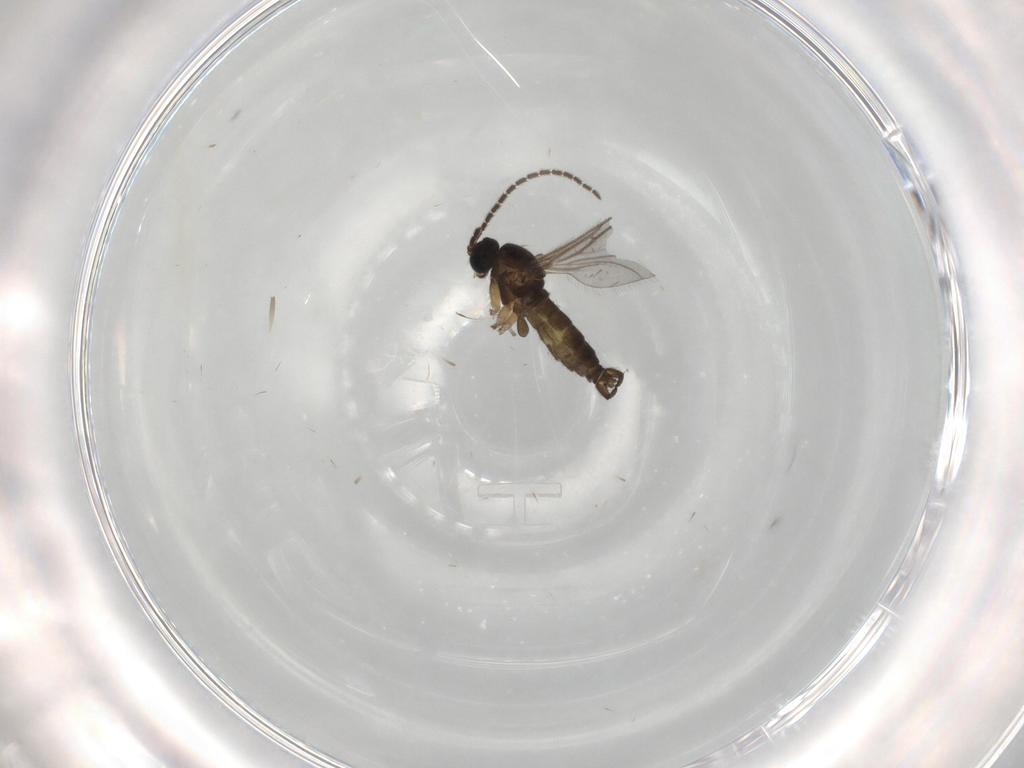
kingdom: Animalia
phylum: Arthropoda
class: Insecta
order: Diptera
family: Sciaridae
